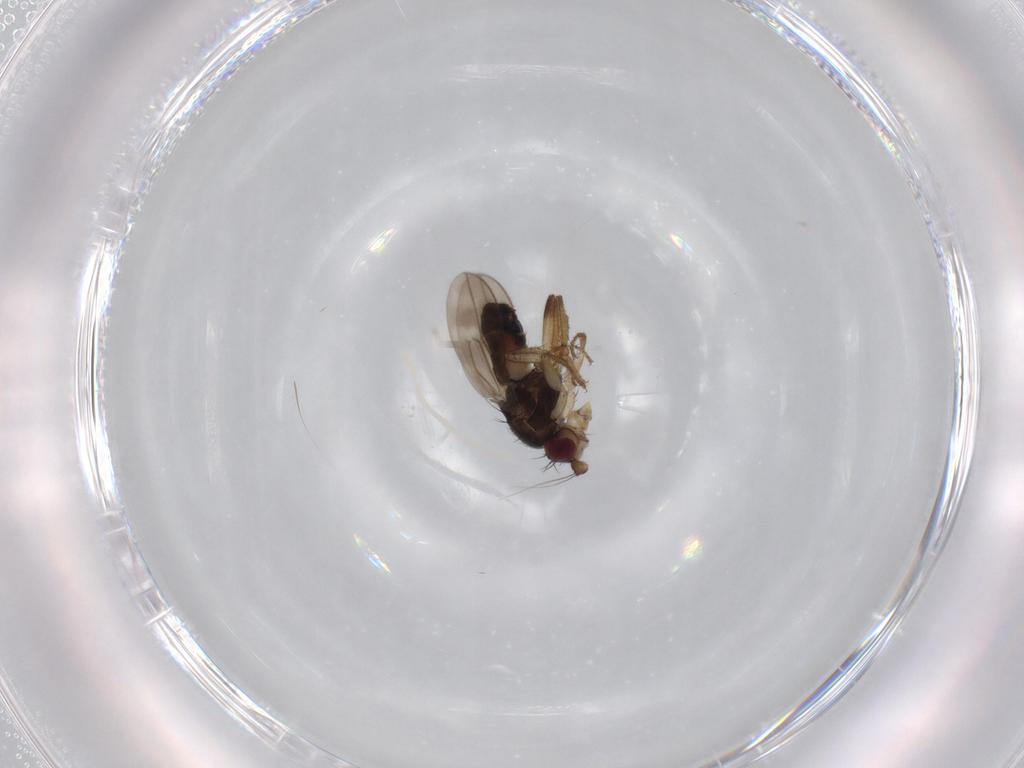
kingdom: Animalia
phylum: Arthropoda
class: Insecta
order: Diptera
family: Sphaeroceridae
